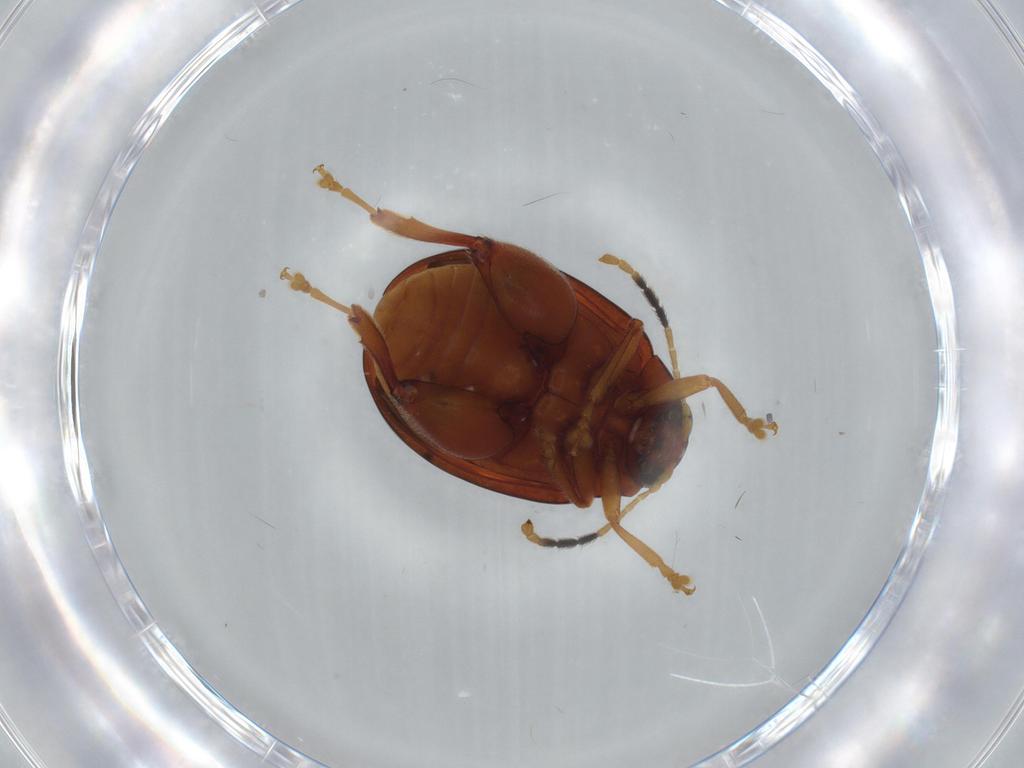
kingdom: Animalia
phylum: Arthropoda
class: Insecta
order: Coleoptera
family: Chrysomelidae
